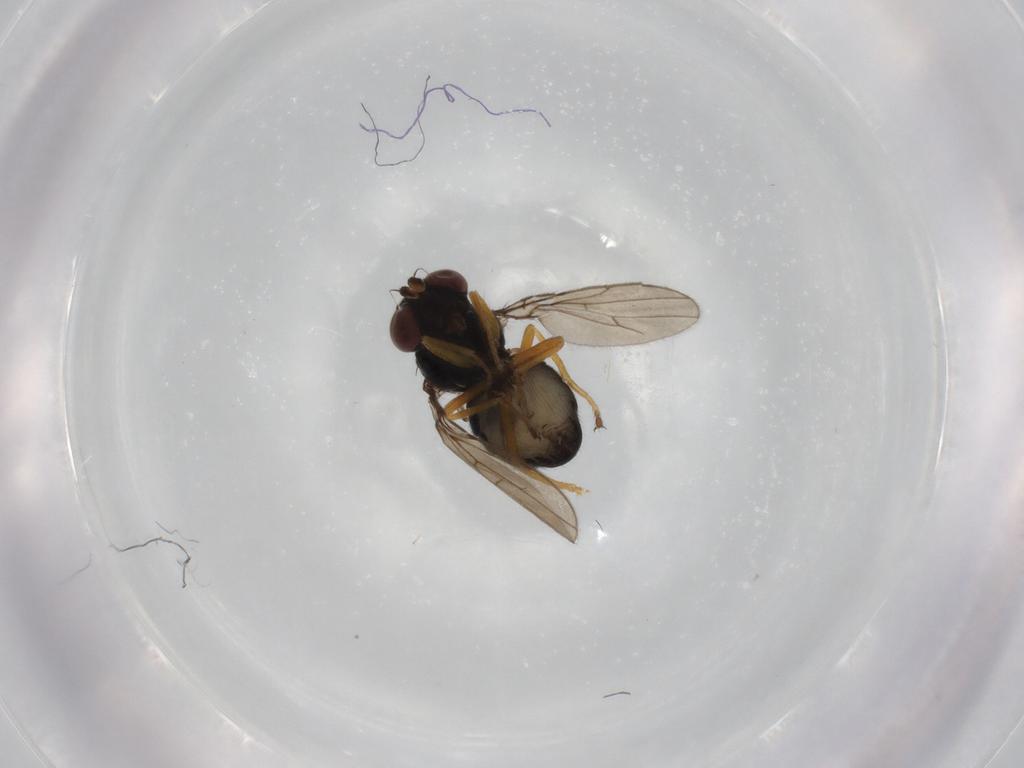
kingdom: Animalia
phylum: Arthropoda
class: Insecta
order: Diptera
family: Ephydridae
